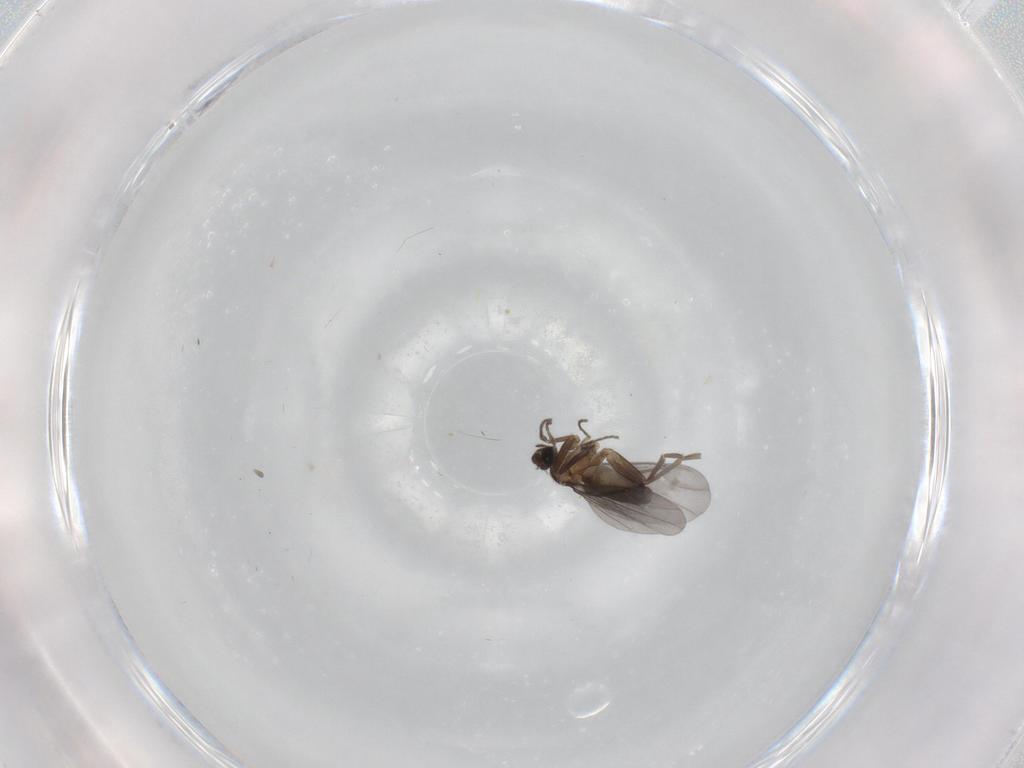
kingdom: Animalia
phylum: Arthropoda
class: Insecta
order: Diptera
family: Phoridae
